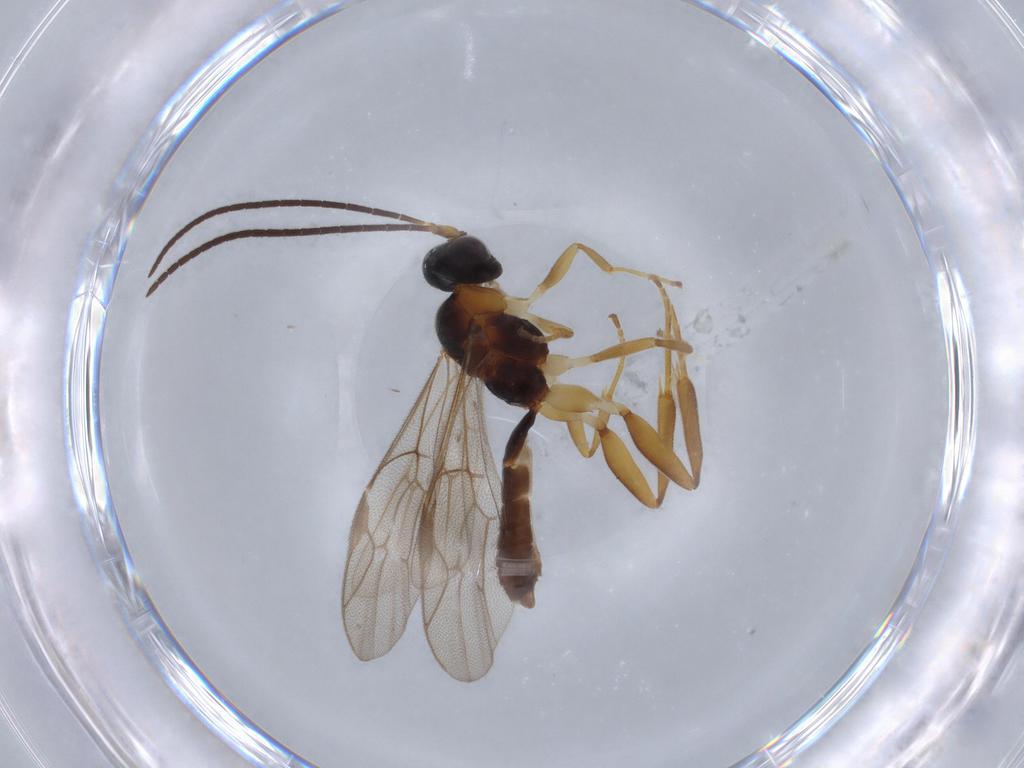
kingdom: Animalia
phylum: Arthropoda
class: Insecta
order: Hymenoptera
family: Ichneumonidae
